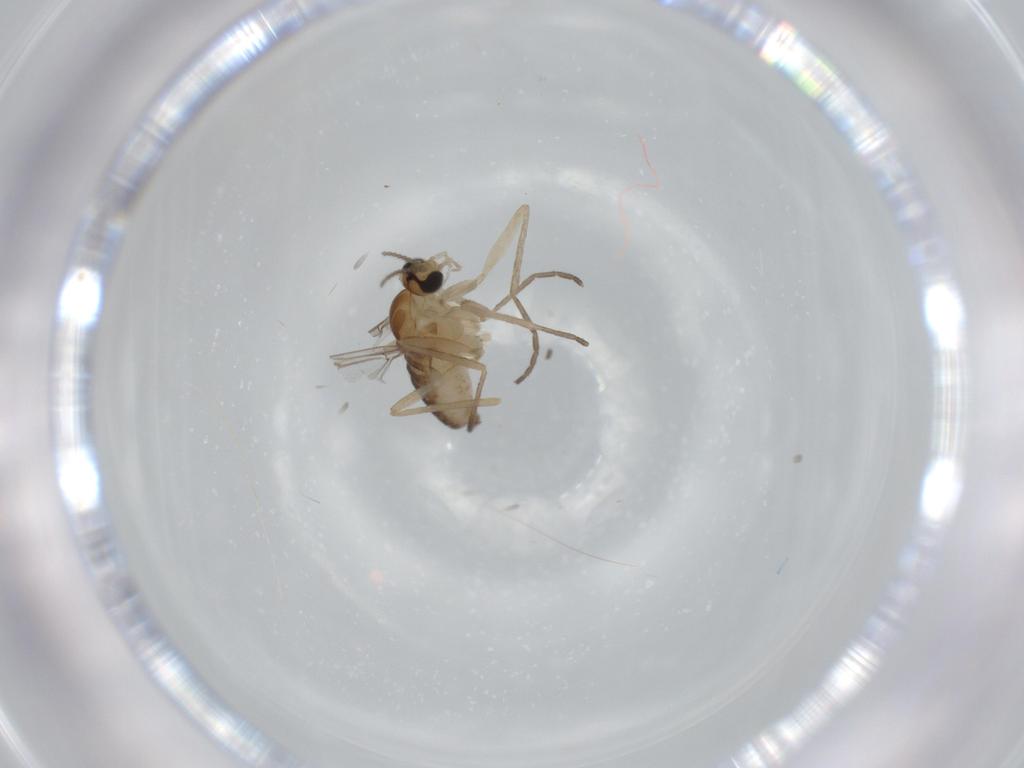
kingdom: Animalia
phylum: Arthropoda
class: Insecta
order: Diptera
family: Cecidomyiidae
